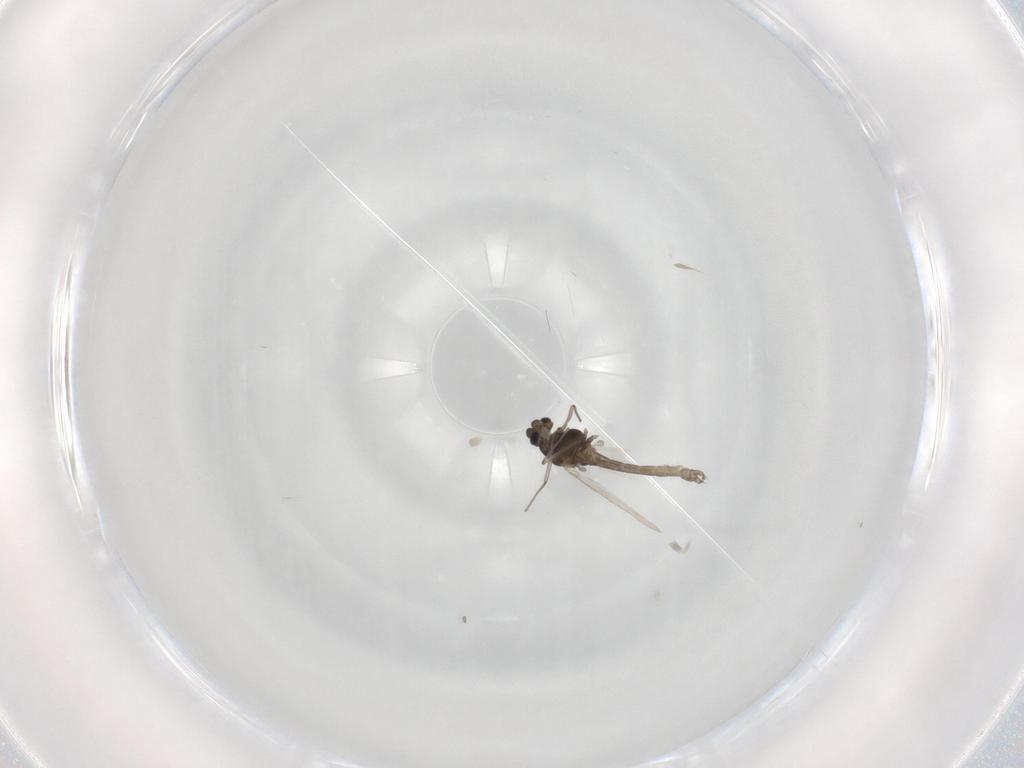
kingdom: Animalia
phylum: Arthropoda
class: Insecta
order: Diptera
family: Chironomidae
